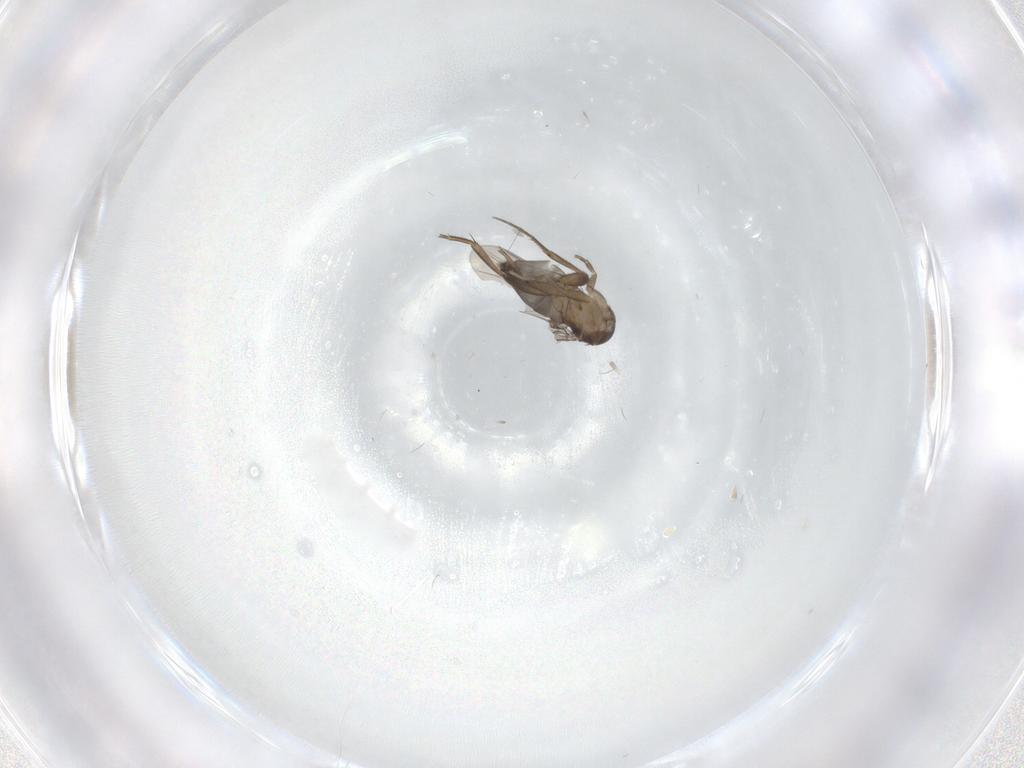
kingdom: Animalia
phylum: Arthropoda
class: Insecta
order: Diptera
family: Phoridae
